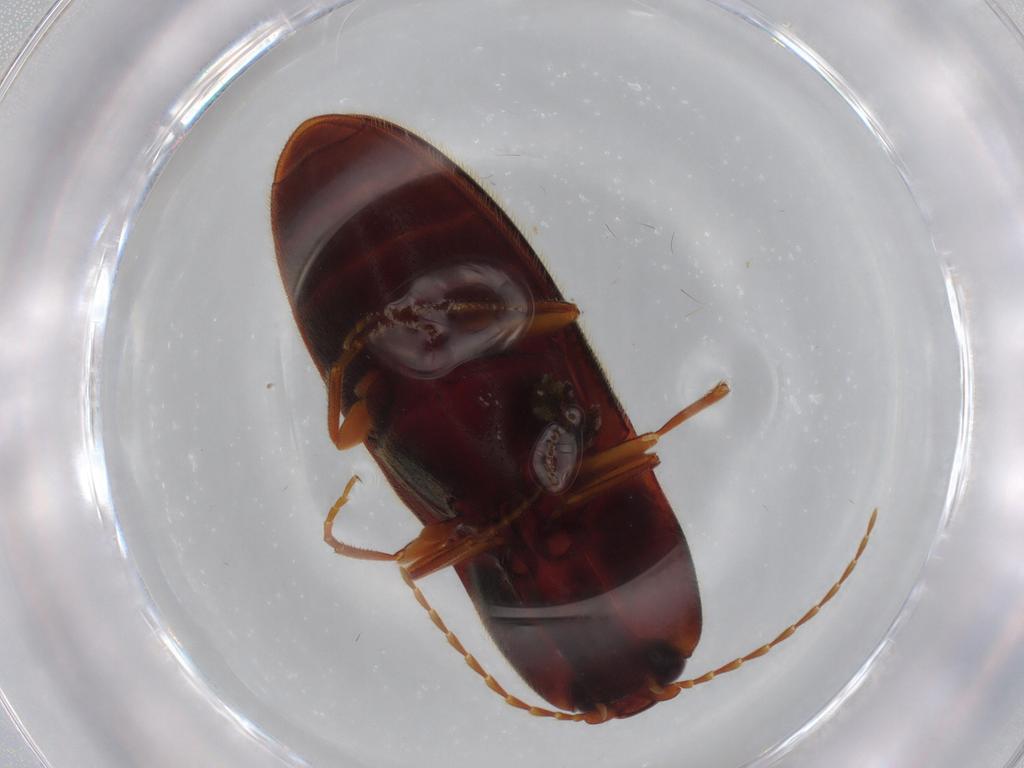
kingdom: Animalia
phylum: Arthropoda
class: Insecta
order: Coleoptera
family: Elateridae
